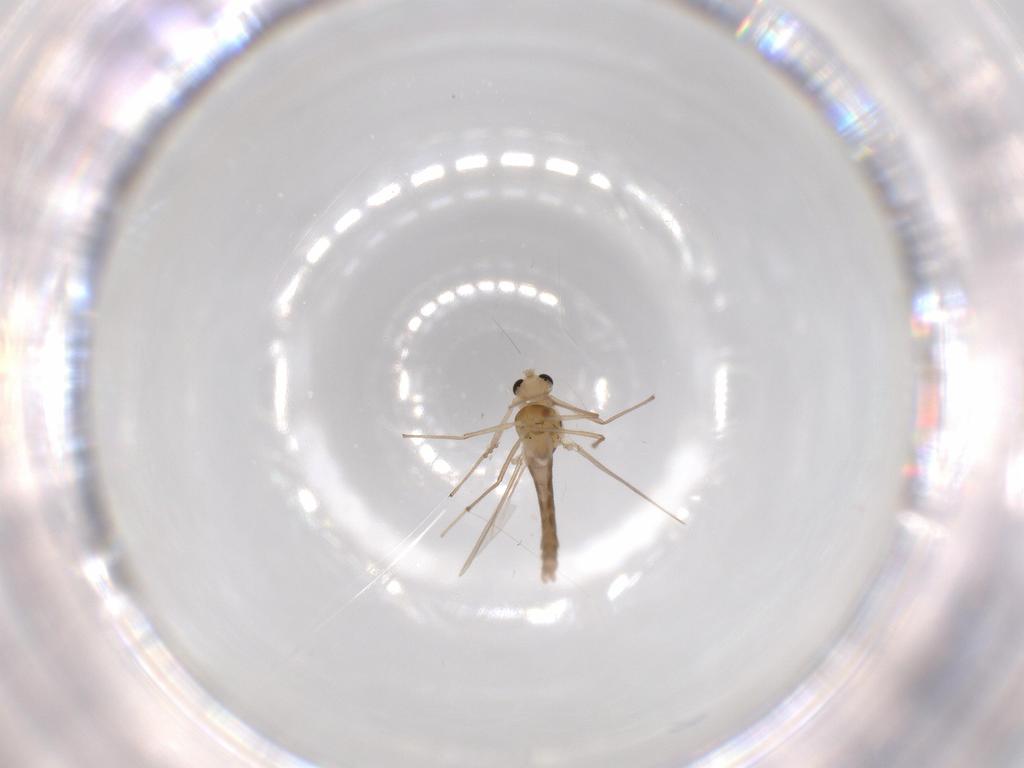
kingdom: Animalia
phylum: Arthropoda
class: Insecta
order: Diptera
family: Chironomidae
